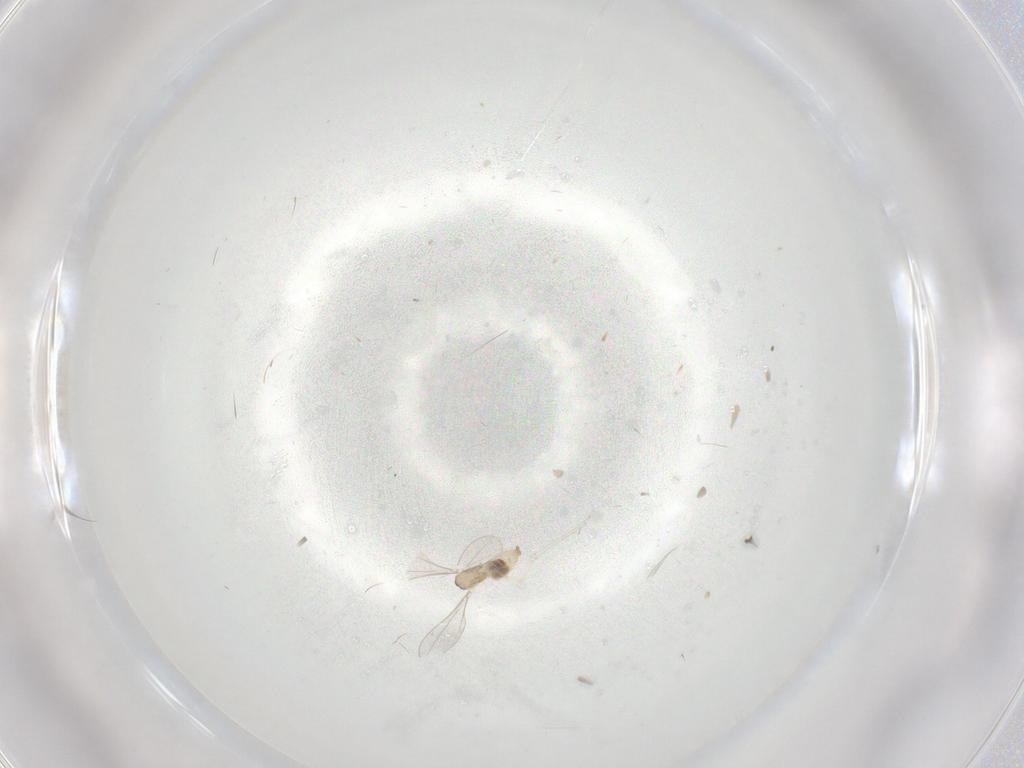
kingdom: Animalia
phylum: Arthropoda
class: Insecta
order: Diptera
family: Cecidomyiidae
